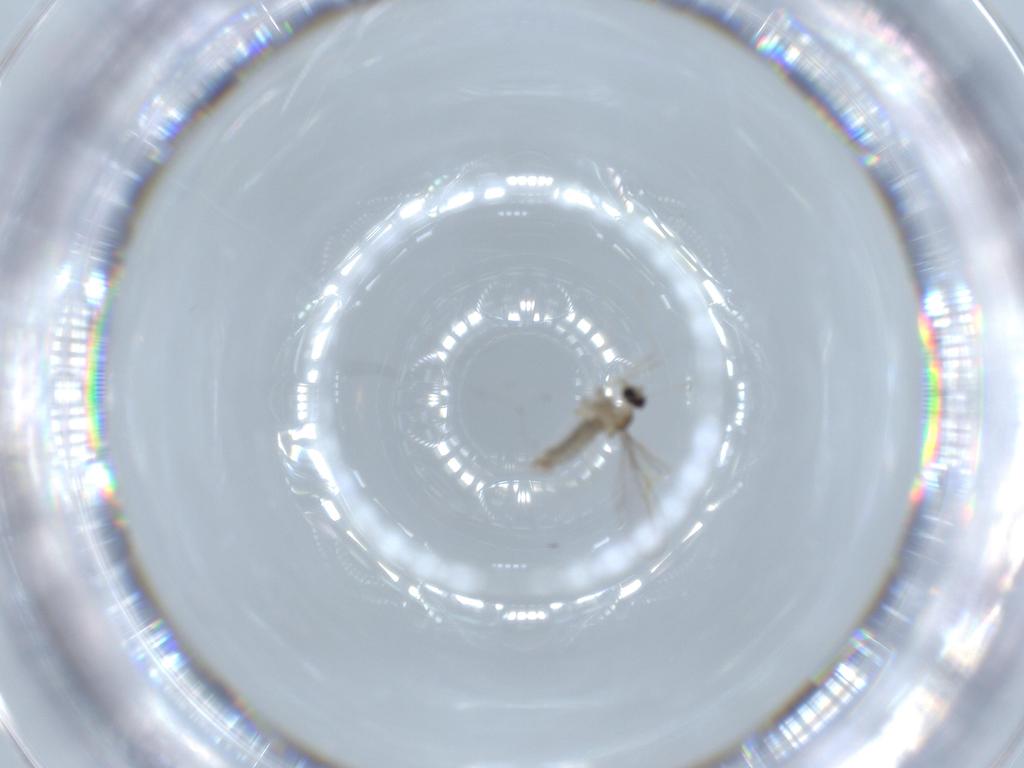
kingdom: Animalia
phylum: Arthropoda
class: Insecta
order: Diptera
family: Cecidomyiidae
